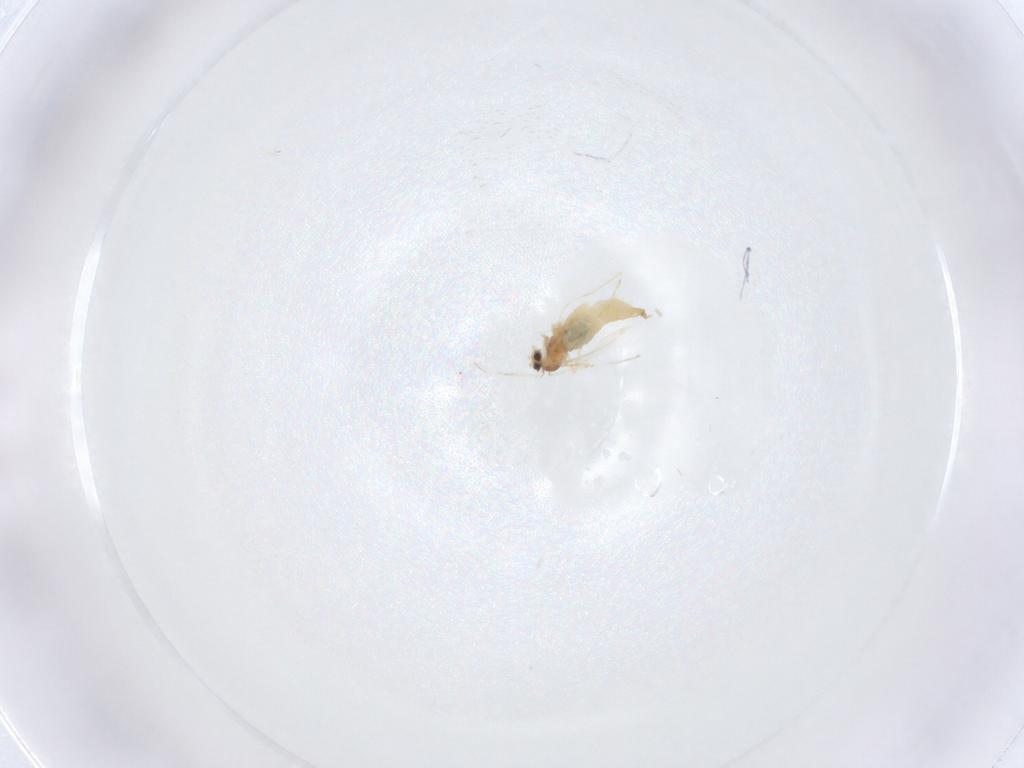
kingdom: Animalia
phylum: Arthropoda
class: Insecta
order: Diptera
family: Cecidomyiidae
